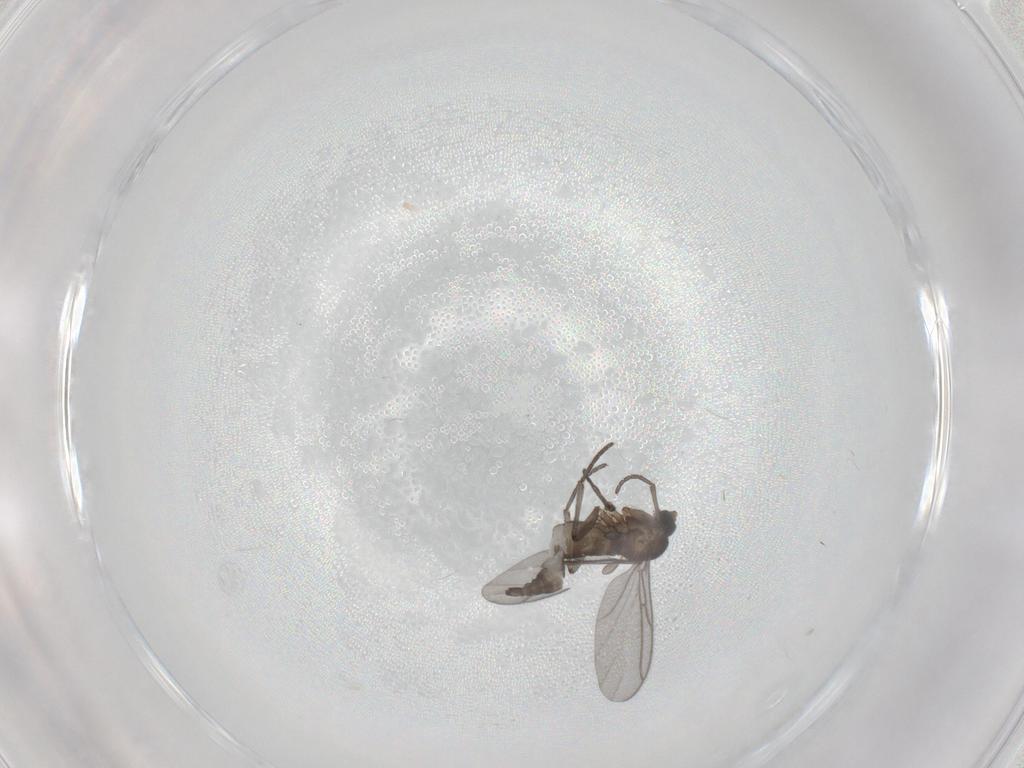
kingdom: Animalia
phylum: Arthropoda
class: Insecta
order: Diptera
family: Sciaridae
